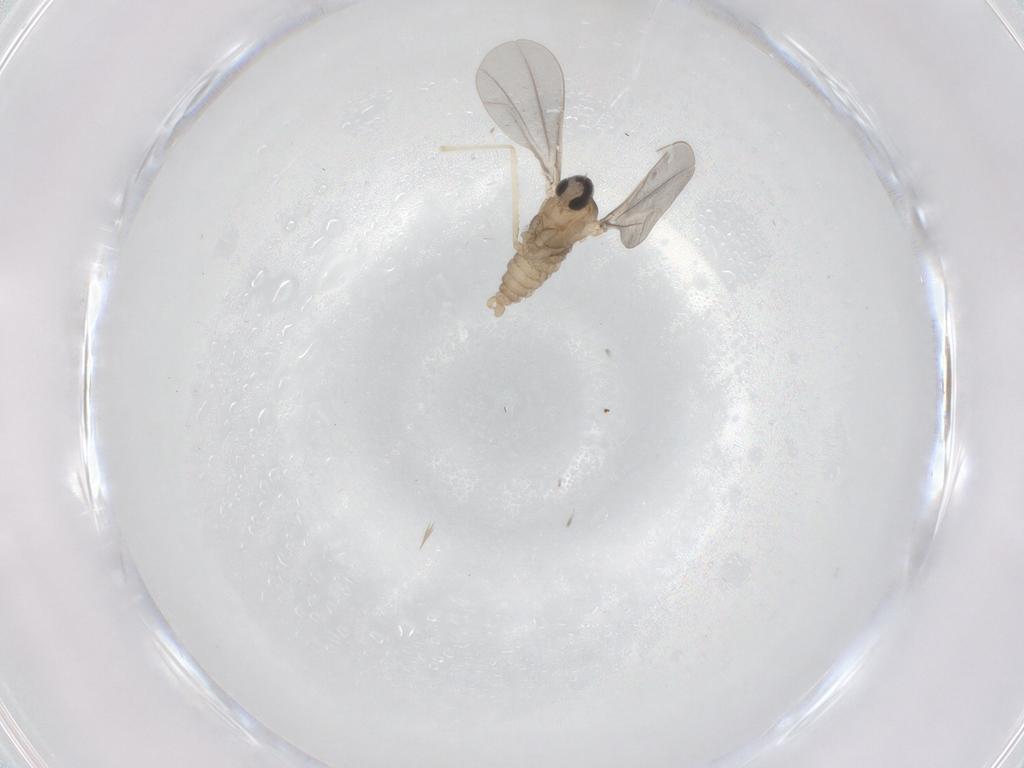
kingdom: Animalia
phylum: Arthropoda
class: Insecta
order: Diptera
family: Cecidomyiidae
